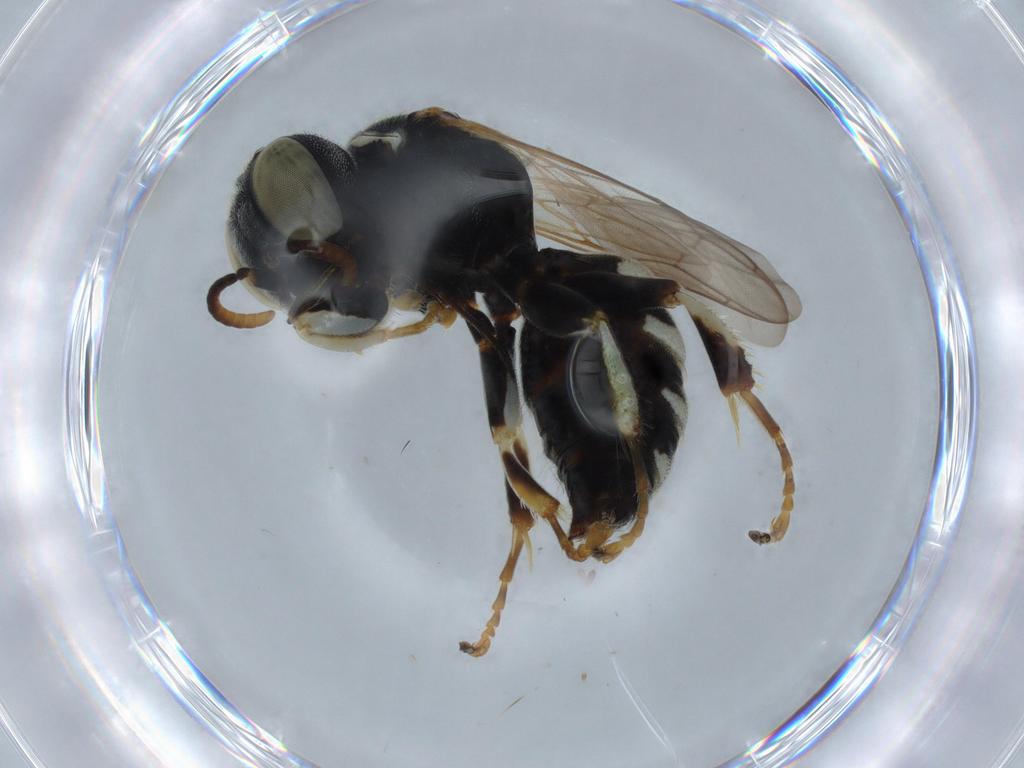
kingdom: Animalia
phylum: Arthropoda
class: Insecta
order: Hymenoptera
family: Crabronidae
